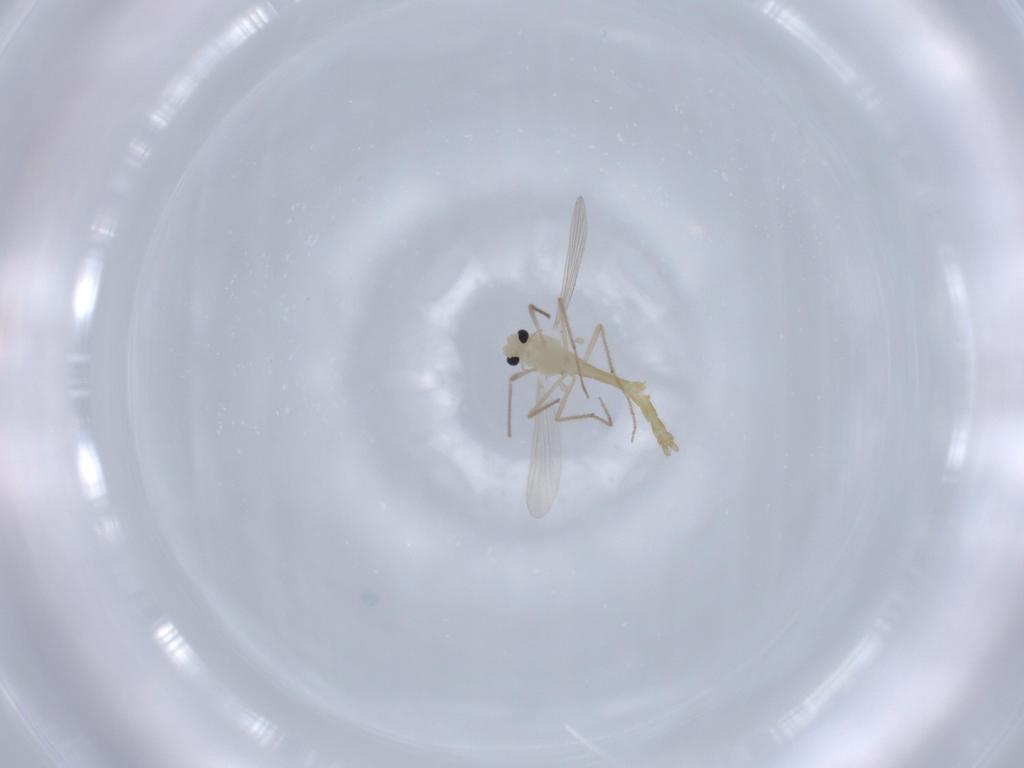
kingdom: Animalia
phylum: Arthropoda
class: Insecta
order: Diptera
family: Chironomidae
